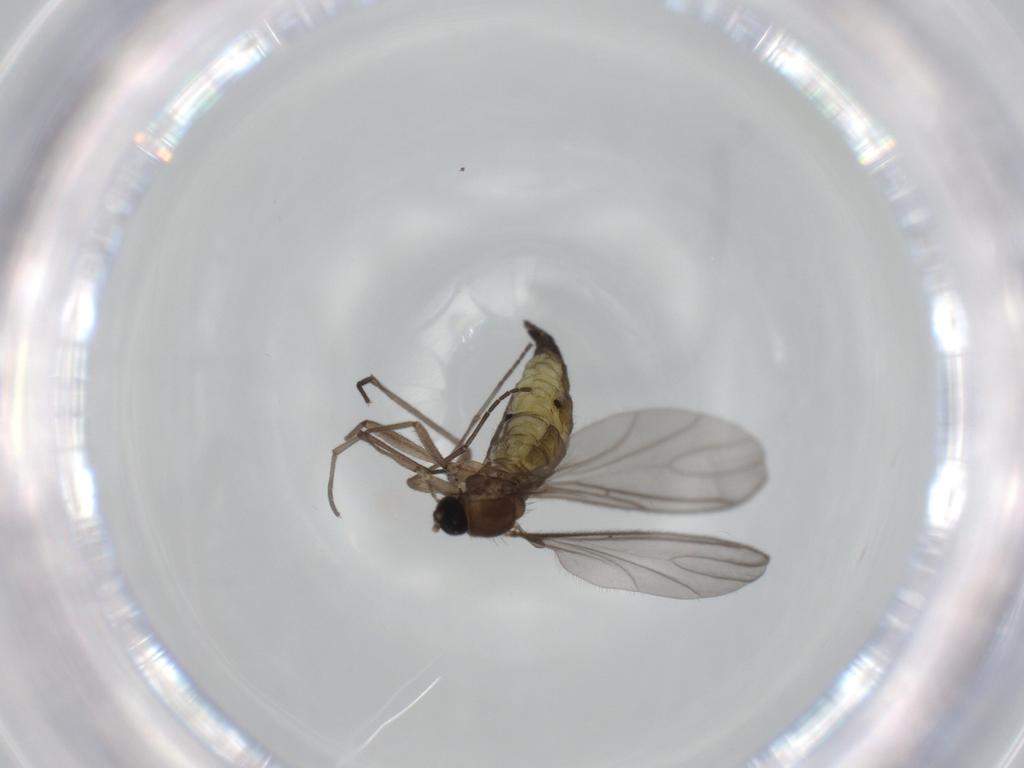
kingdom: Animalia
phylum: Arthropoda
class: Insecta
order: Diptera
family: Sciaridae
